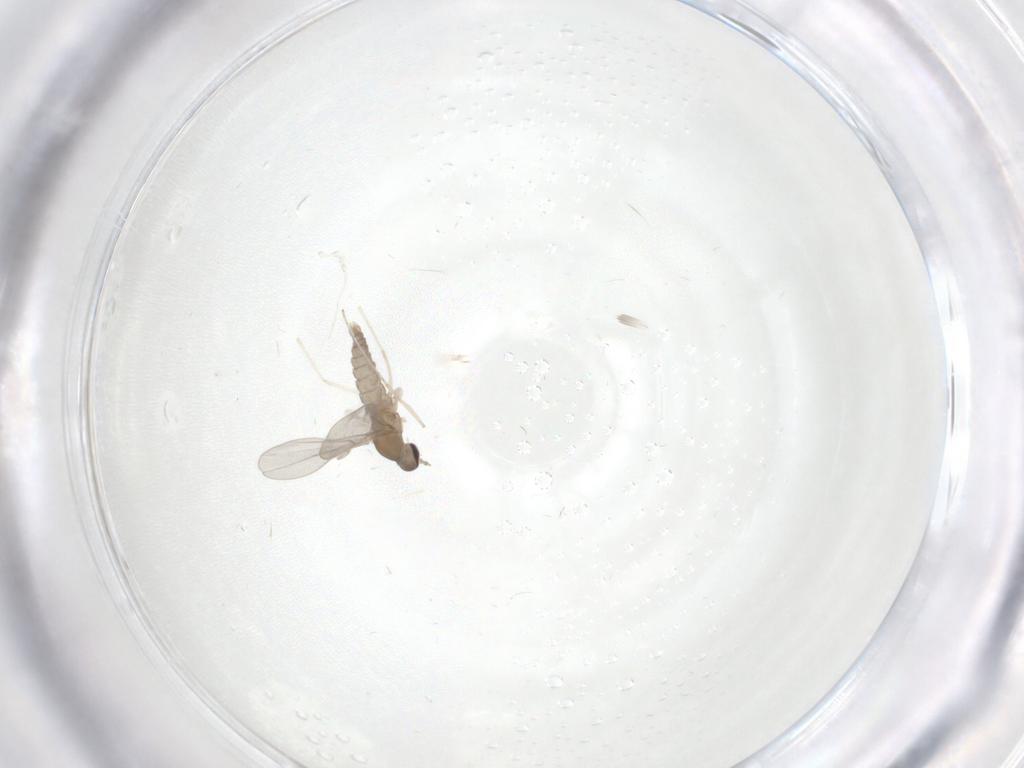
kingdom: Animalia
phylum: Arthropoda
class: Insecta
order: Diptera
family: Cecidomyiidae
